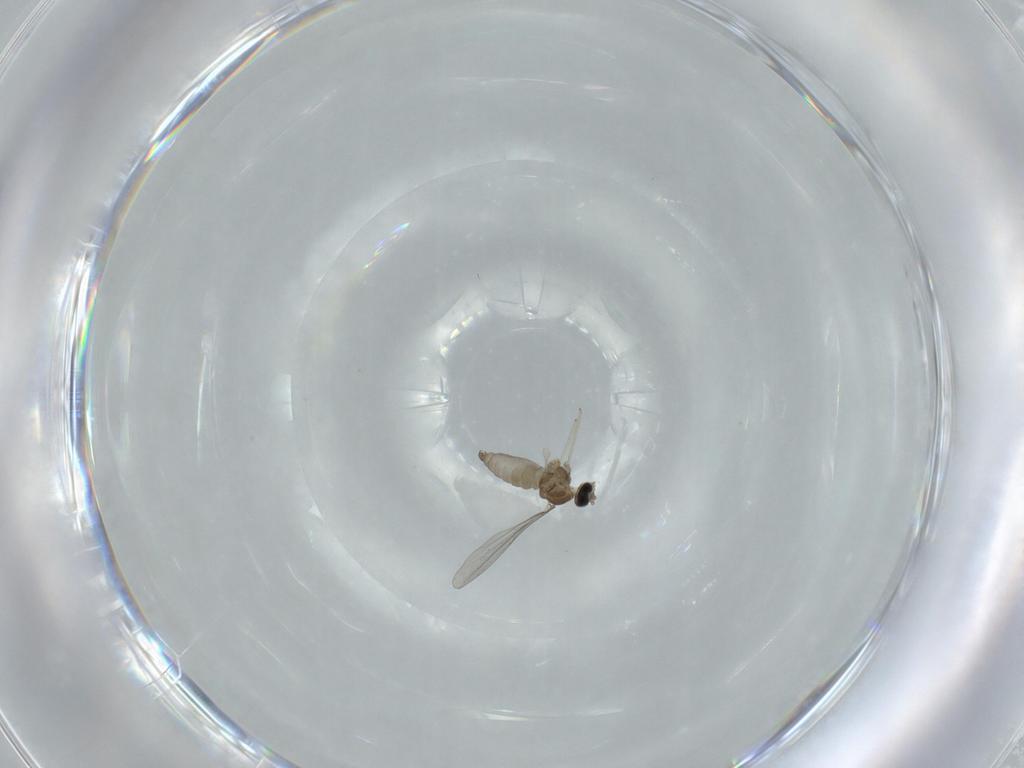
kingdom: Animalia
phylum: Arthropoda
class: Insecta
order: Diptera
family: Cecidomyiidae
